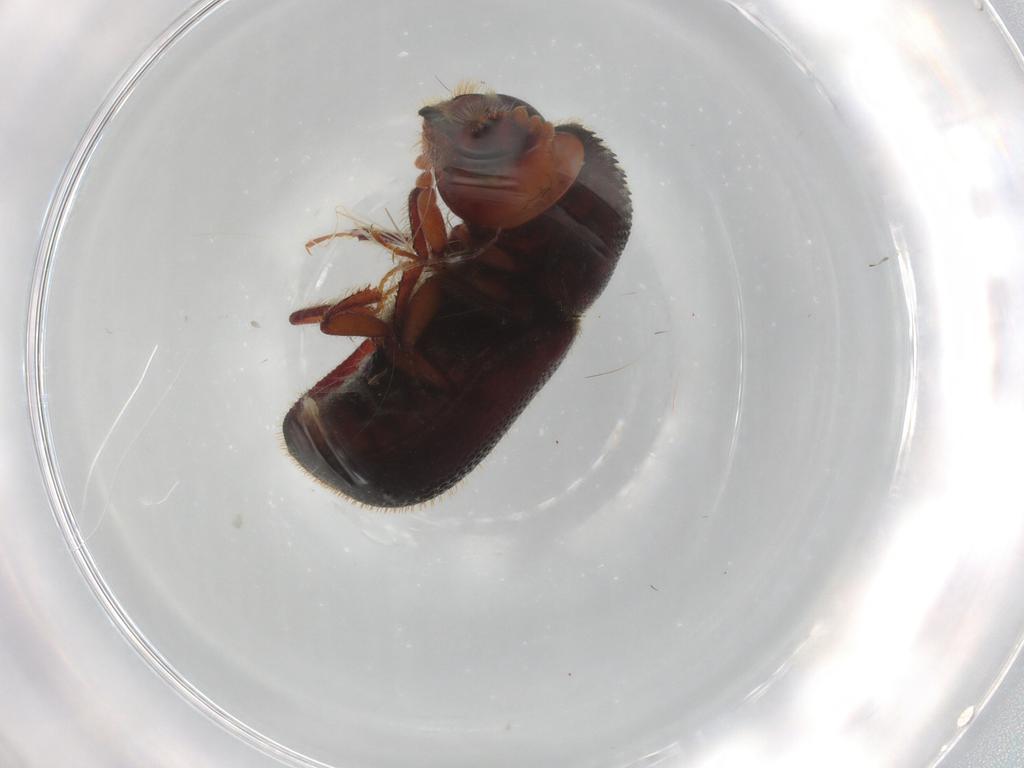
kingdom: Animalia
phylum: Arthropoda
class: Insecta
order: Coleoptera
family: Bostrichidae
